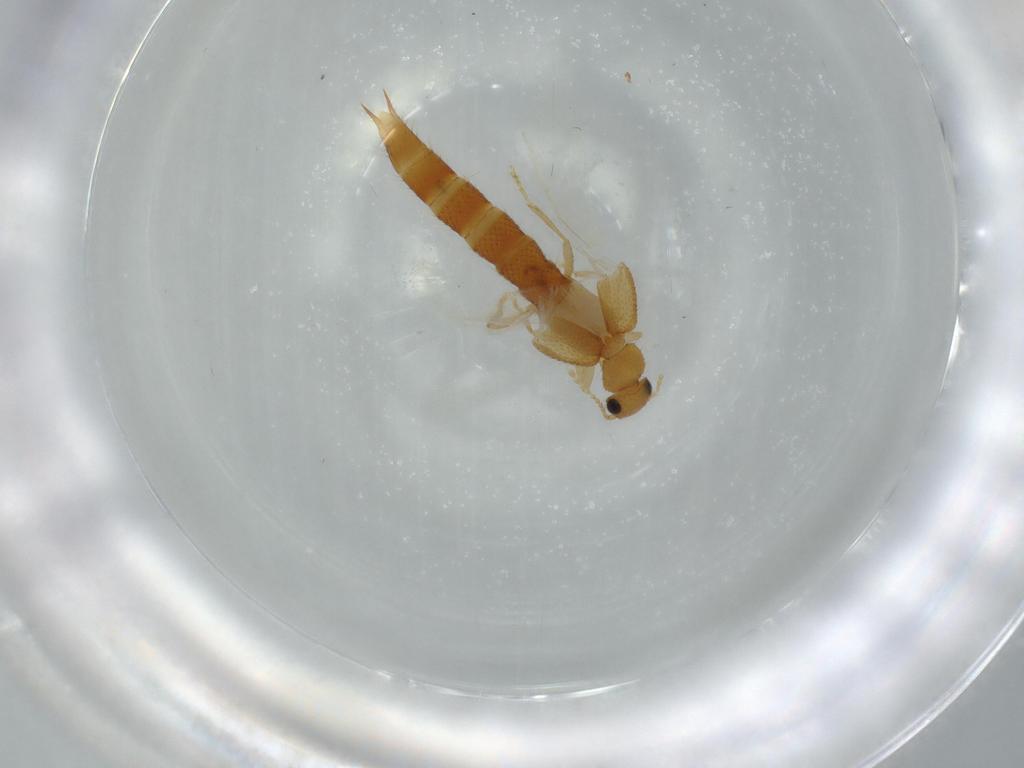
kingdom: Animalia
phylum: Arthropoda
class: Insecta
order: Coleoptera
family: Staphylinidae
